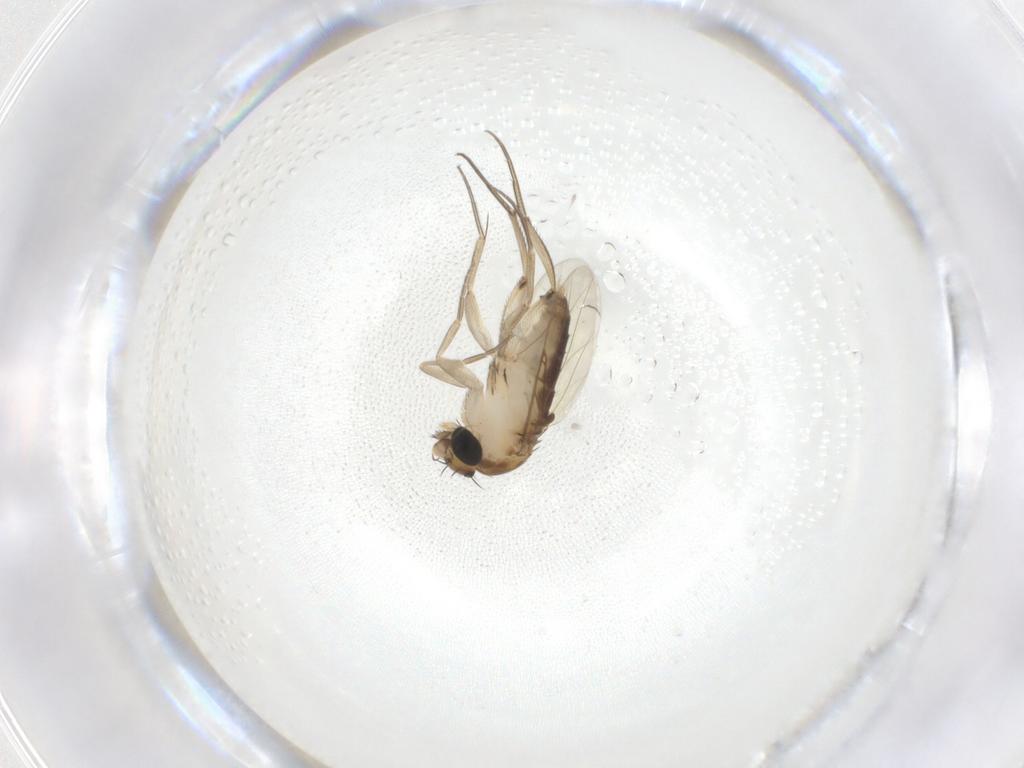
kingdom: Animalia
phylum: Arthropoda
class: Insecta
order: Diptera
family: Phoridae
